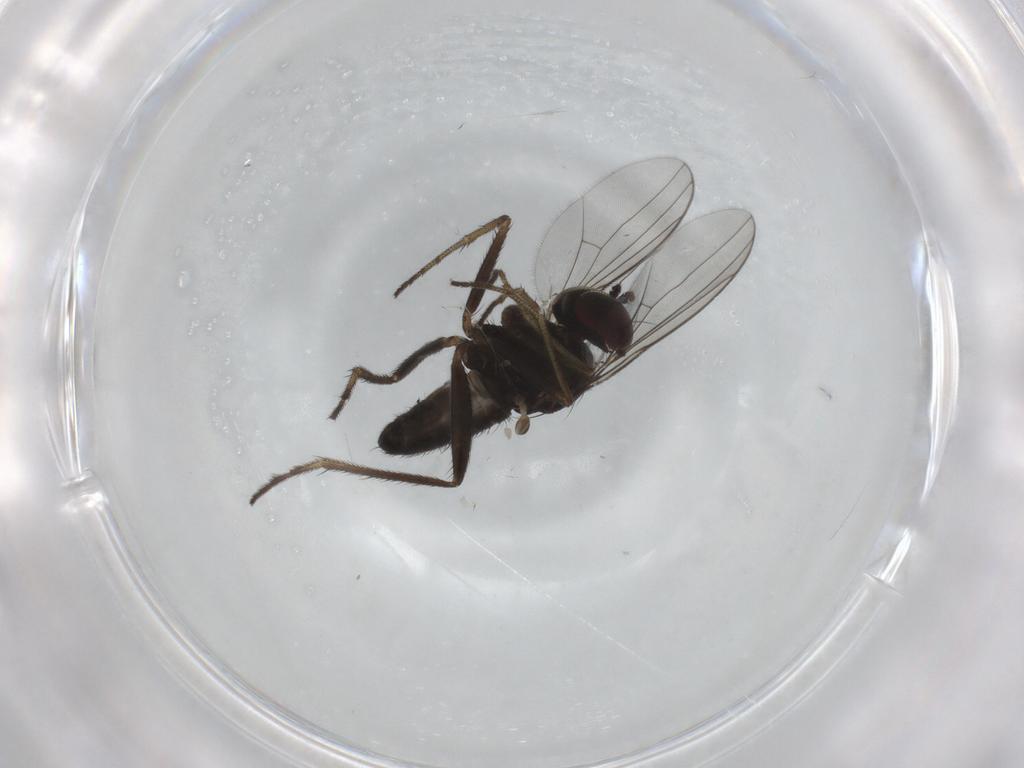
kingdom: Animalia
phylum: Arthropoda
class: Insecta
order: Diptera
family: Dolichopodidae
